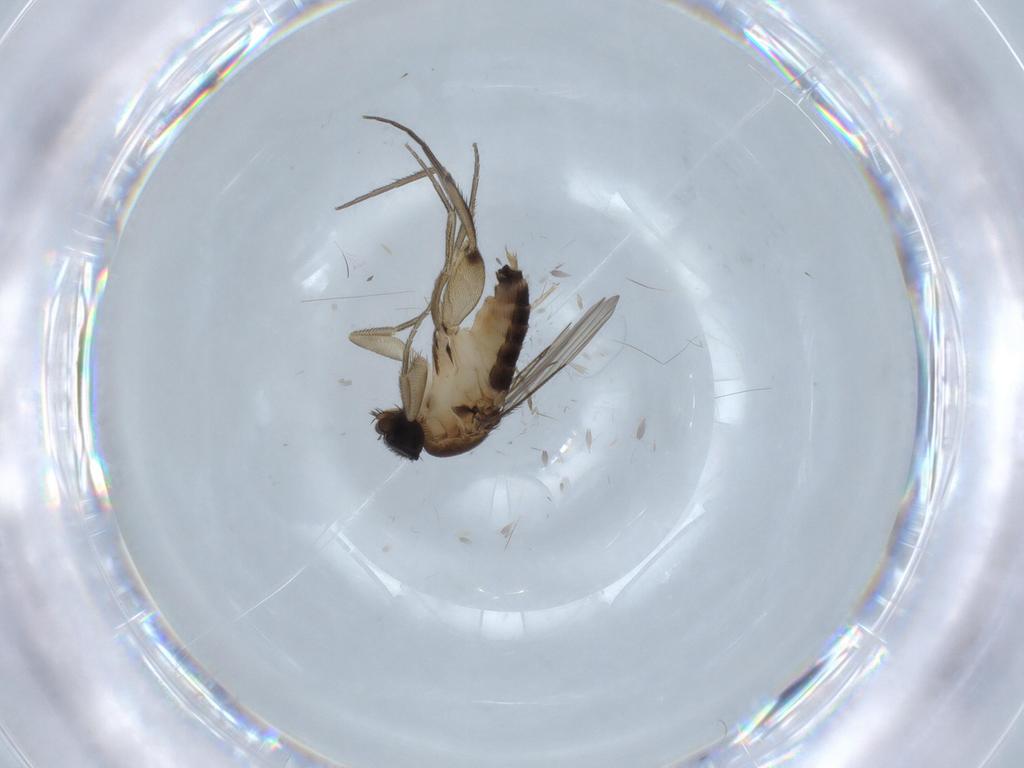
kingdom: Animalia
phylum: Arthropoda
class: Insecta
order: Diptera
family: Phoridae
